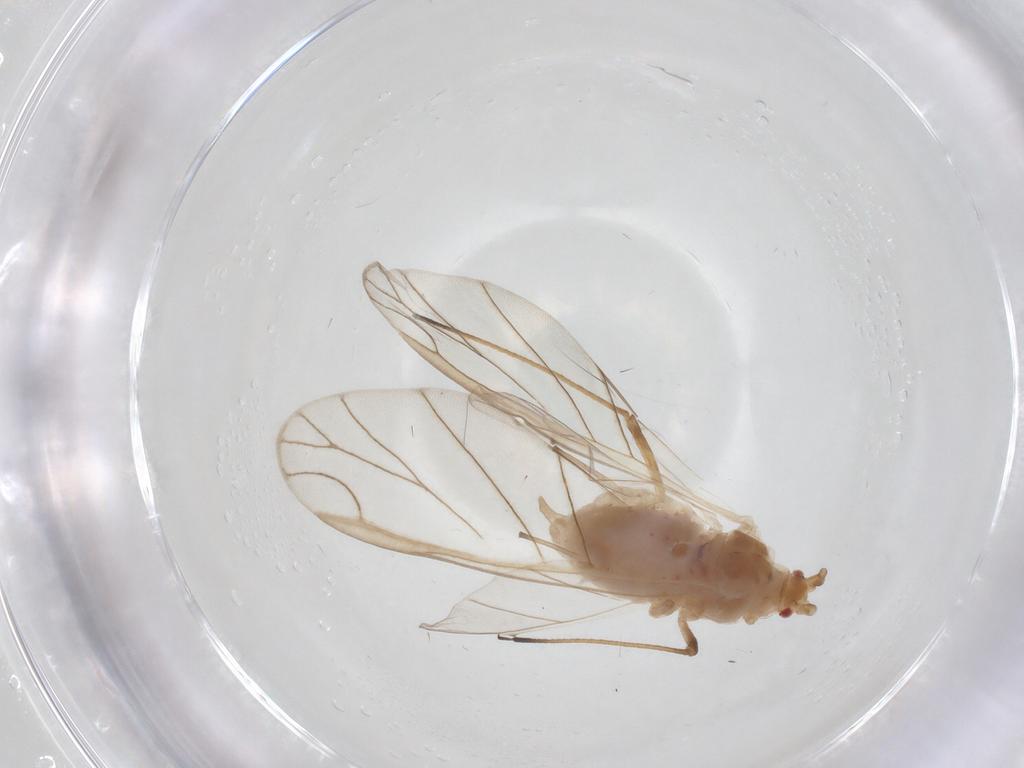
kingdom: Animalia
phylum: Arthropoda
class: Insecta
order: Hemiptera
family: Aphididae
